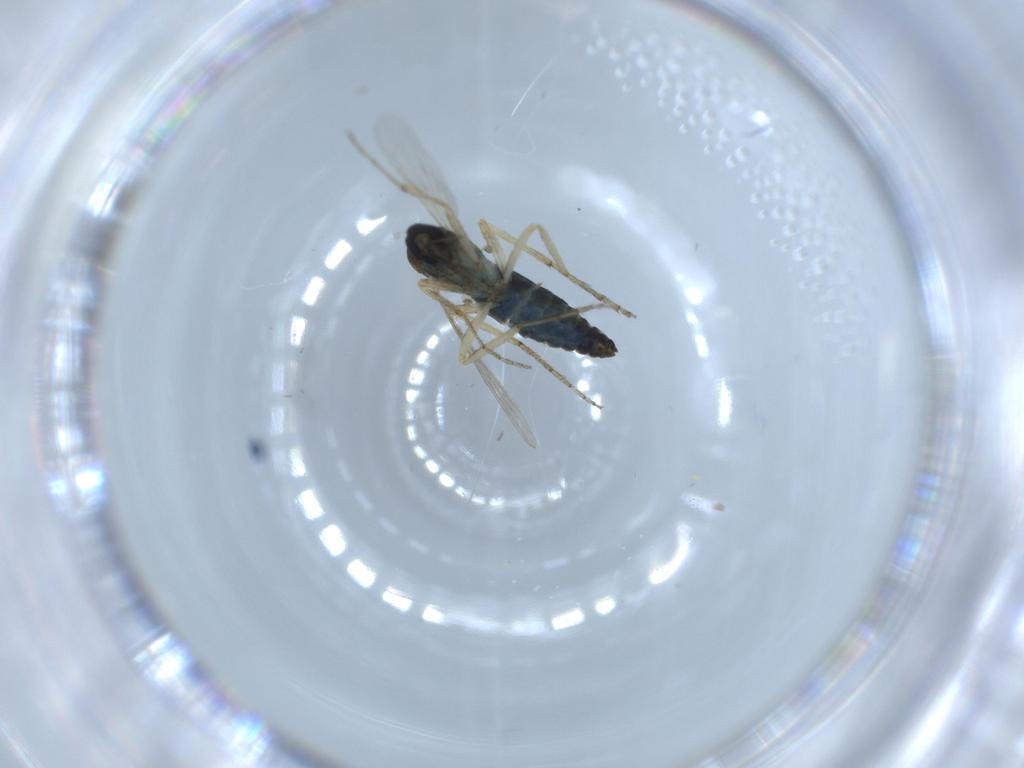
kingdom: Animalia
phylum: Arthropoda
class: Insecta
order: Diptera
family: Ceratopogonidae
